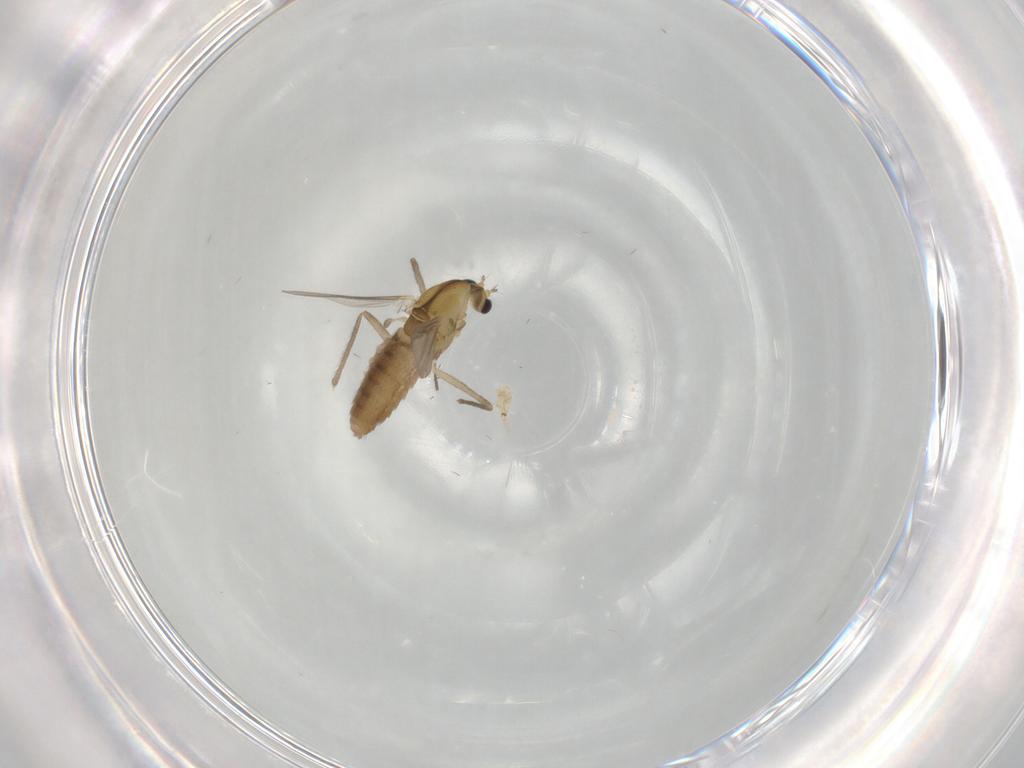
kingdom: Animalia
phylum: Arthropoda
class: Insecta
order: Diptera
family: Chironomidae
